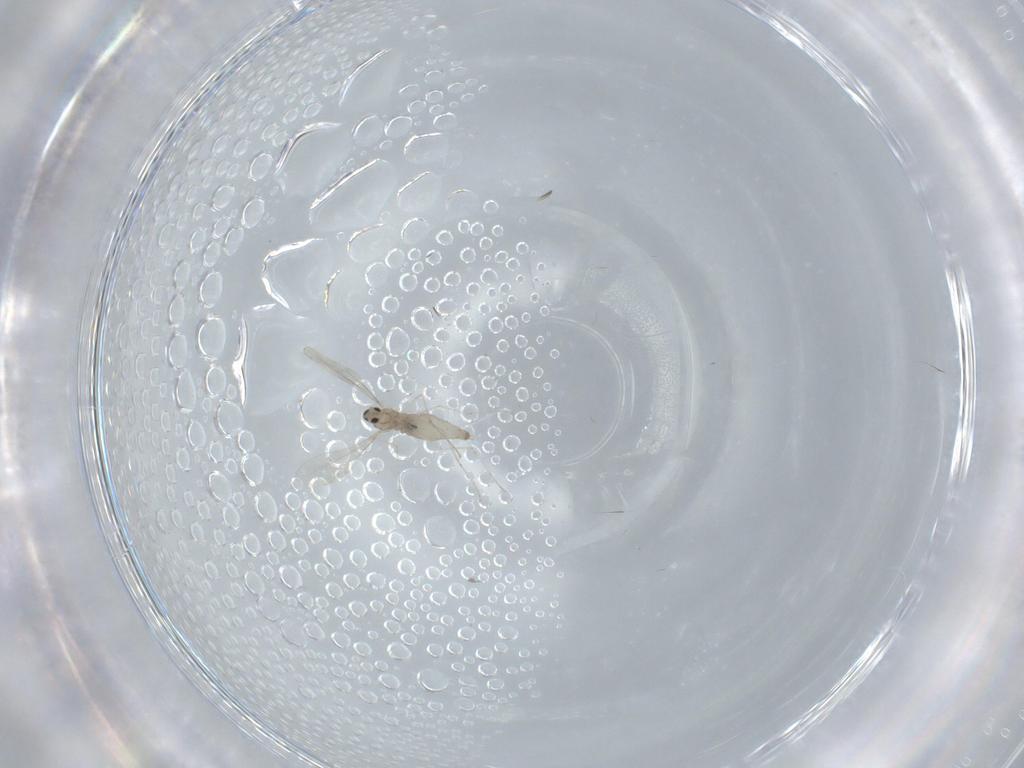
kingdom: Animalia
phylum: Arthropoda
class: Insecta
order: Diptera
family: Cecidomyiidae
